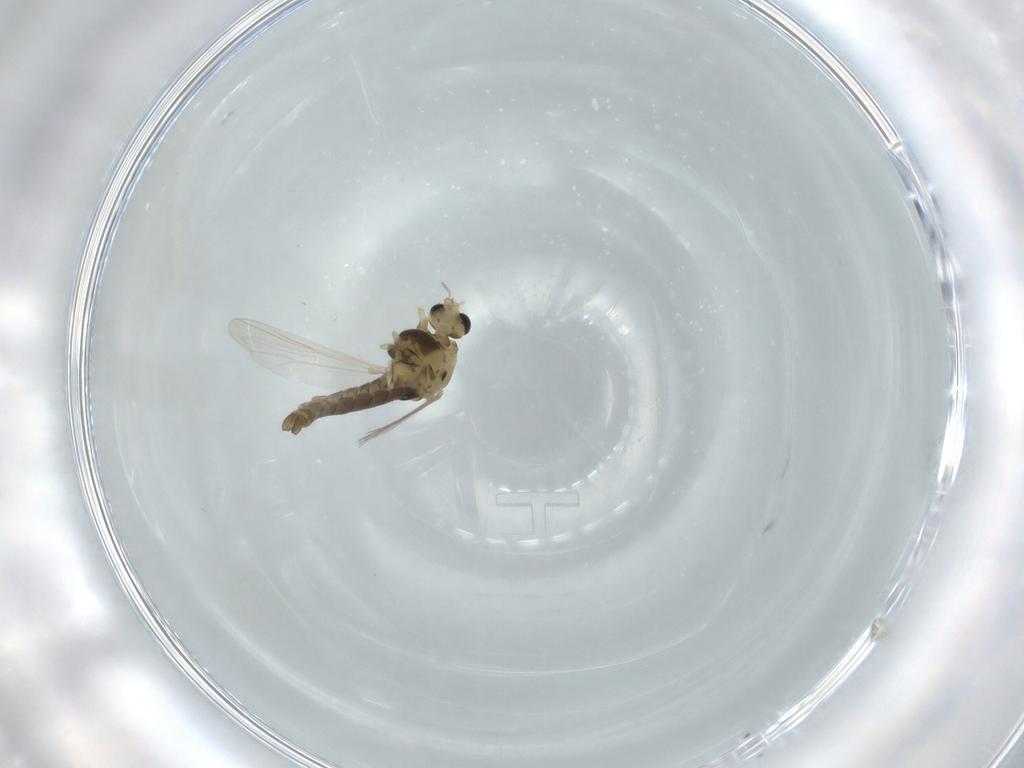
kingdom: Animalia
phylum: Arthropoda
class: Insecta
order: Diptera
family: Chironomidae
